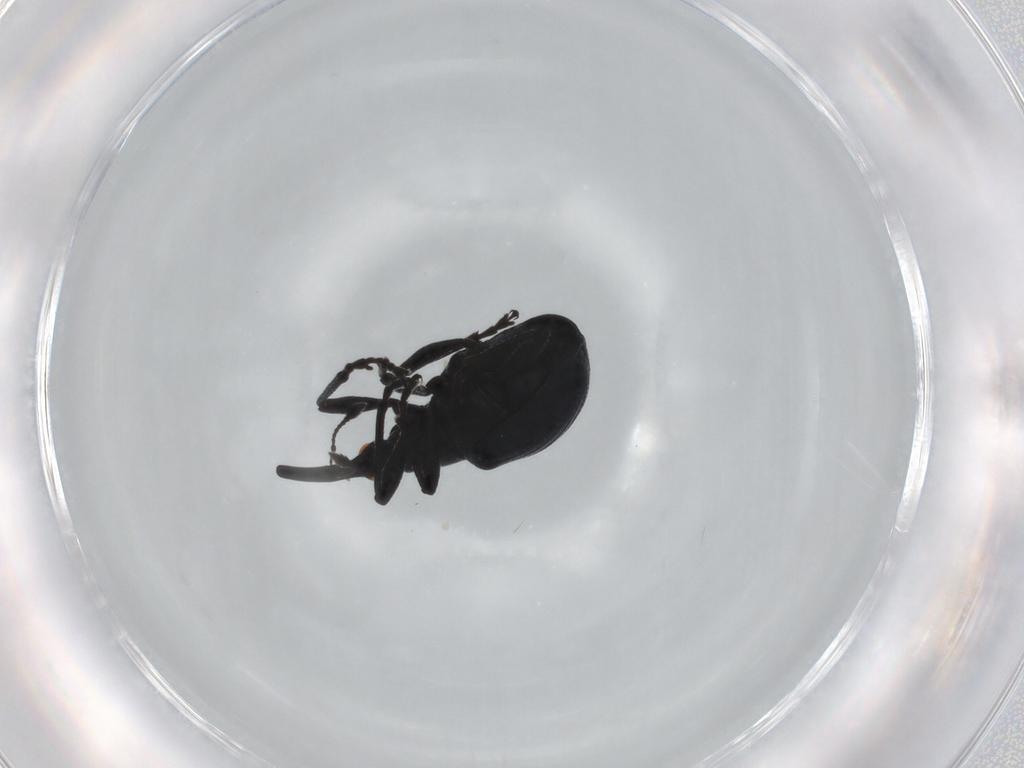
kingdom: Animalia
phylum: Arthropoda
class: Insecta
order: Coleoptera
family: Brentidae
